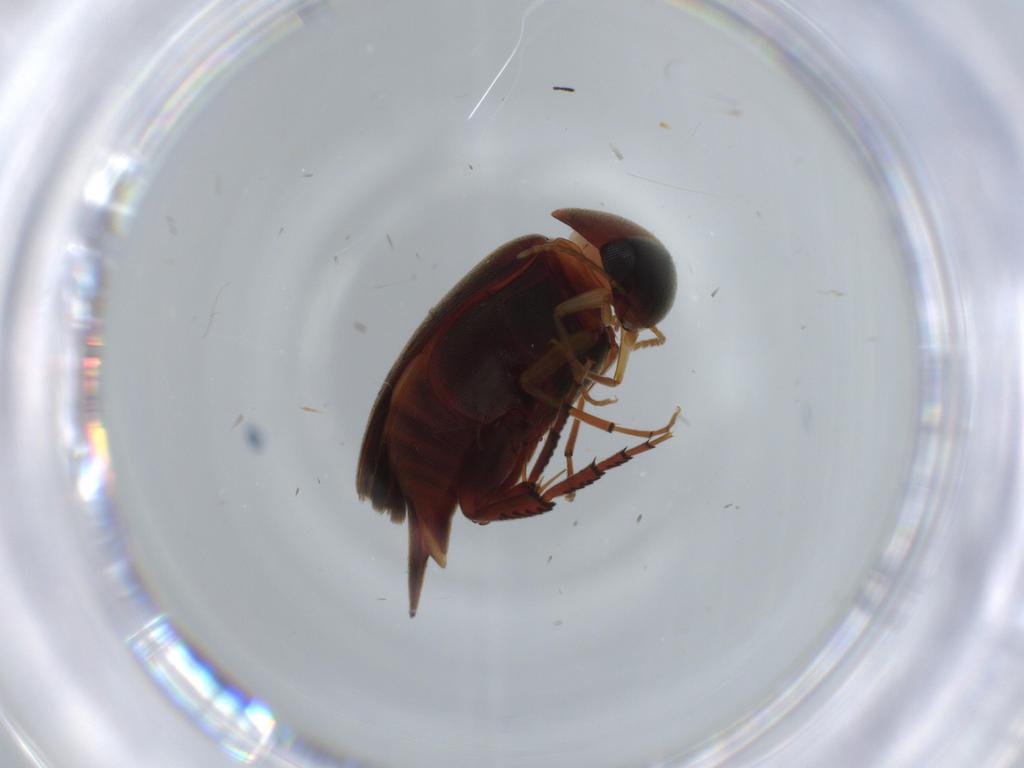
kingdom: Animalia
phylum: Arthropoda
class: Insecta
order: Coleoptera
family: Mordellidae
